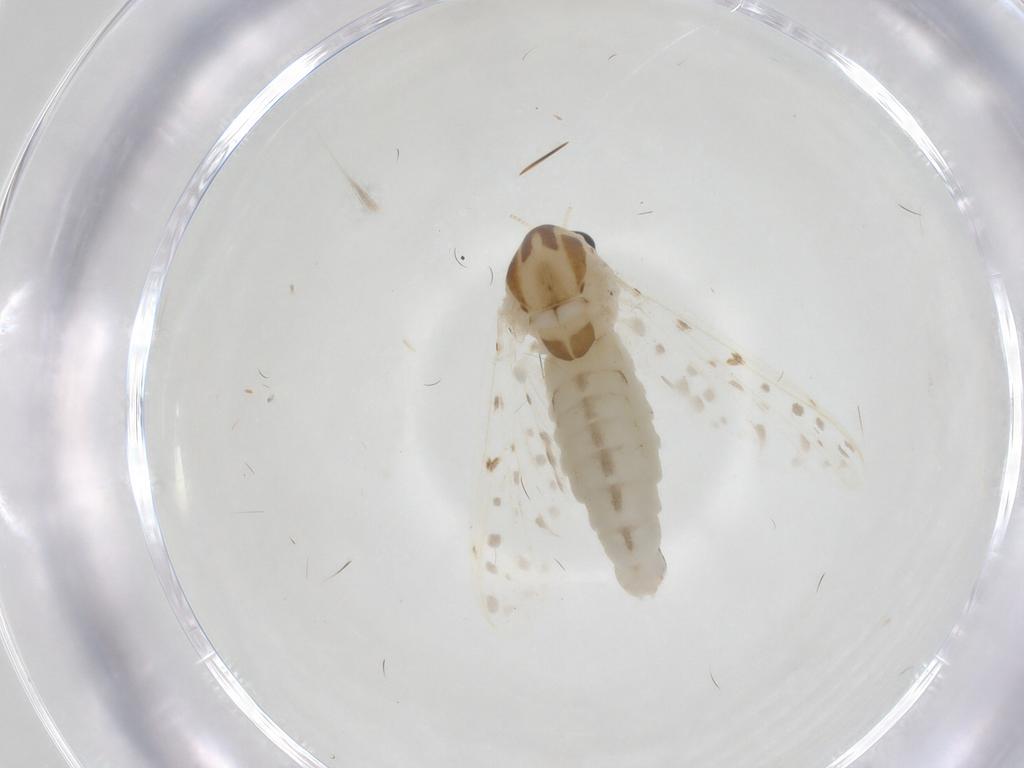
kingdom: Animalia
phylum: Arthropoda
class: Insecta
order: Diptera
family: Chironomidae
